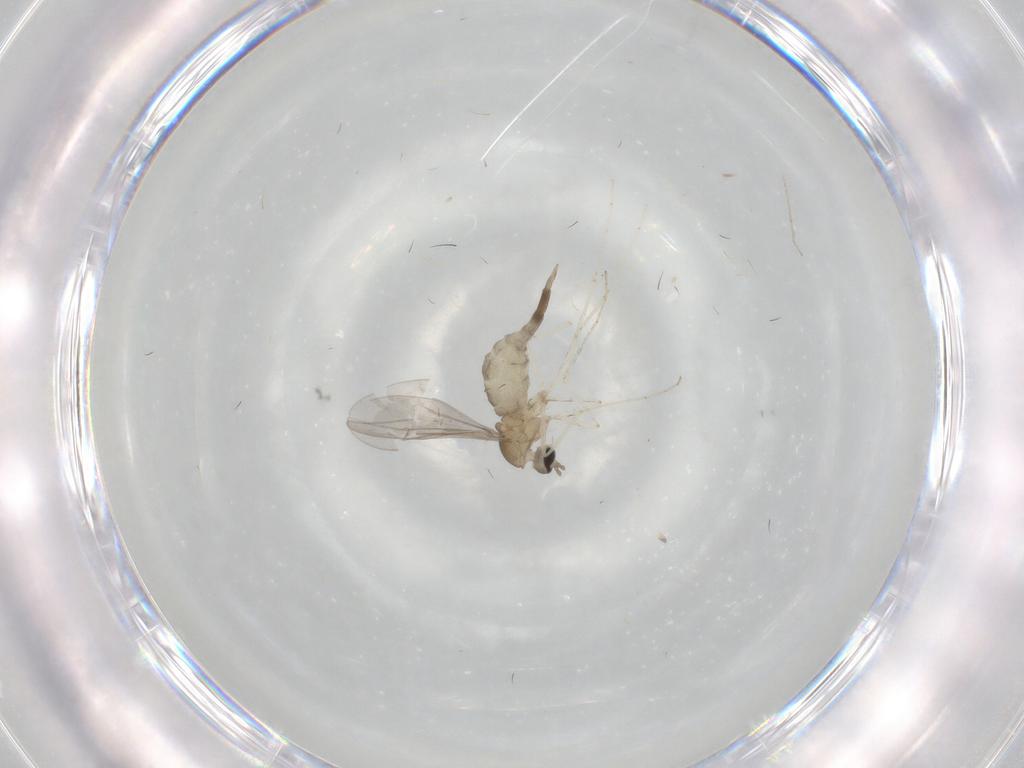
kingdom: Animalia
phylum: Arthropoda
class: Insecta
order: Diptera
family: Cecidomyiidae
